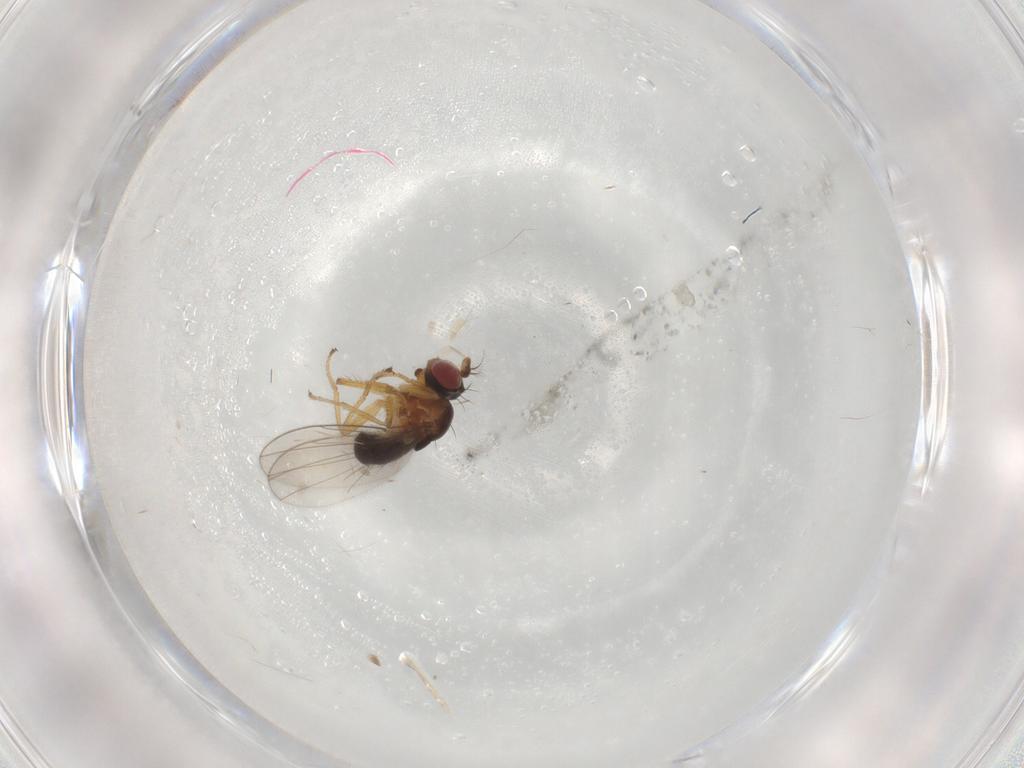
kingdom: Animalia
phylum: Arthropoda
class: Insecta
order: Diptera
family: Ephydridae
